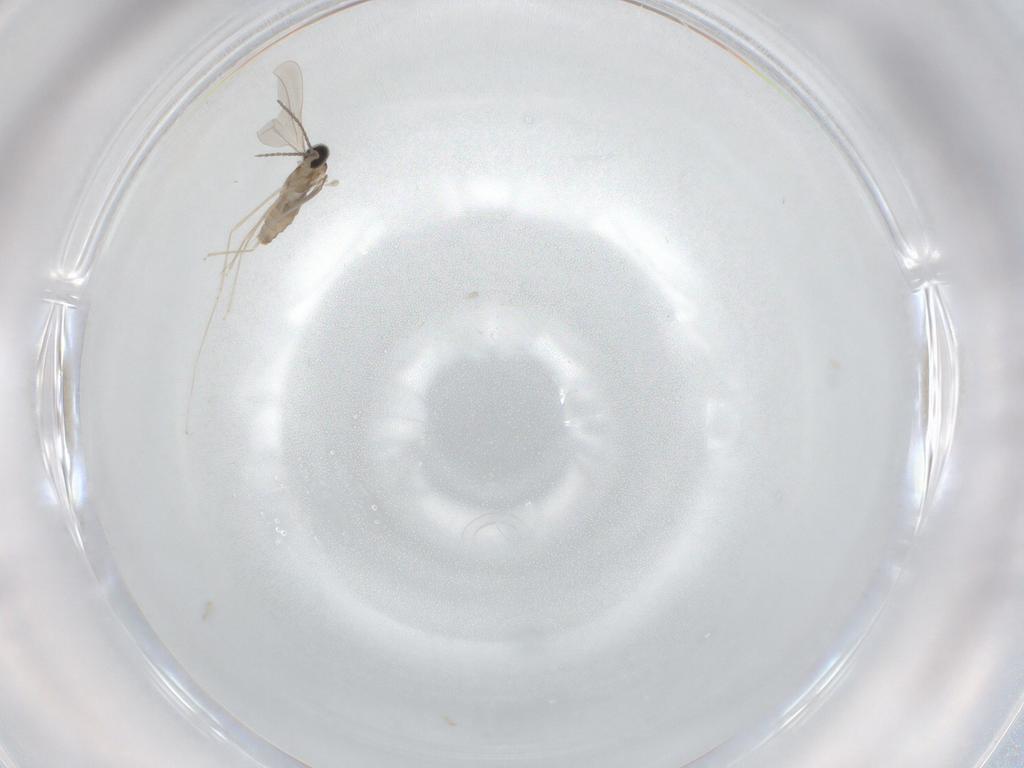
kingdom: Animalia
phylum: Arthropoda
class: Insecta
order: Diptera
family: Cecidomyiidae
